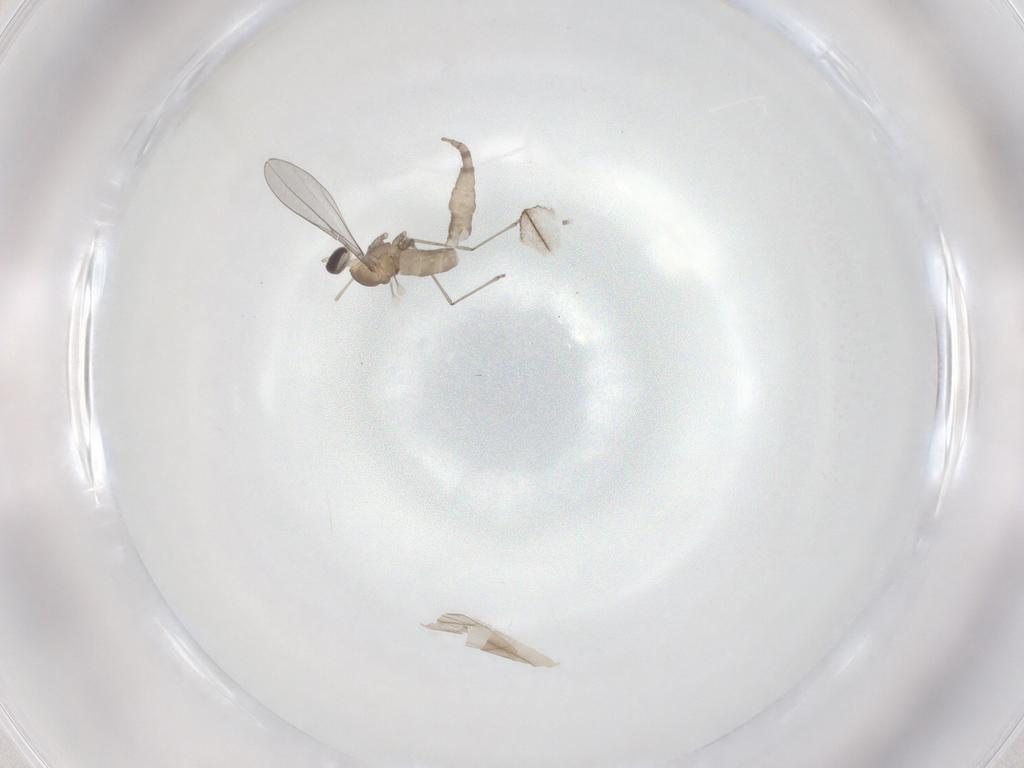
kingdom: Animalia
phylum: Arthropoda
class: Insecta
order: Diptera
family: Cecidomyiidae
